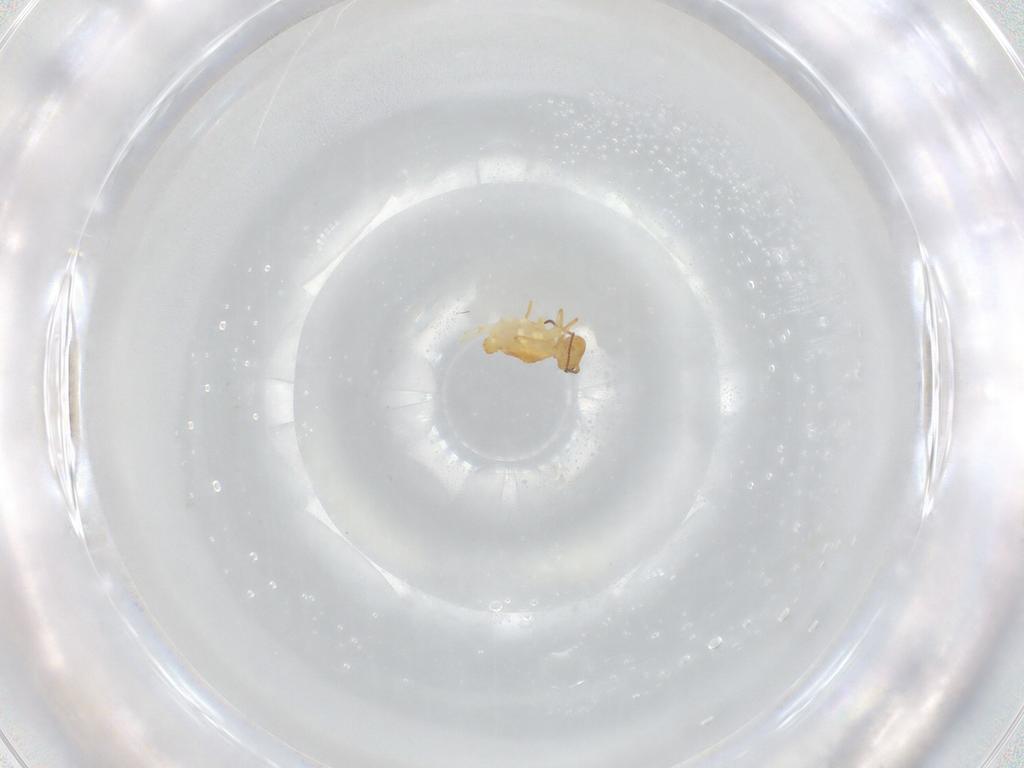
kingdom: Animalia
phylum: Arthropoda
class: Collembola
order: Symphypleona
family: Bourletiellidae
